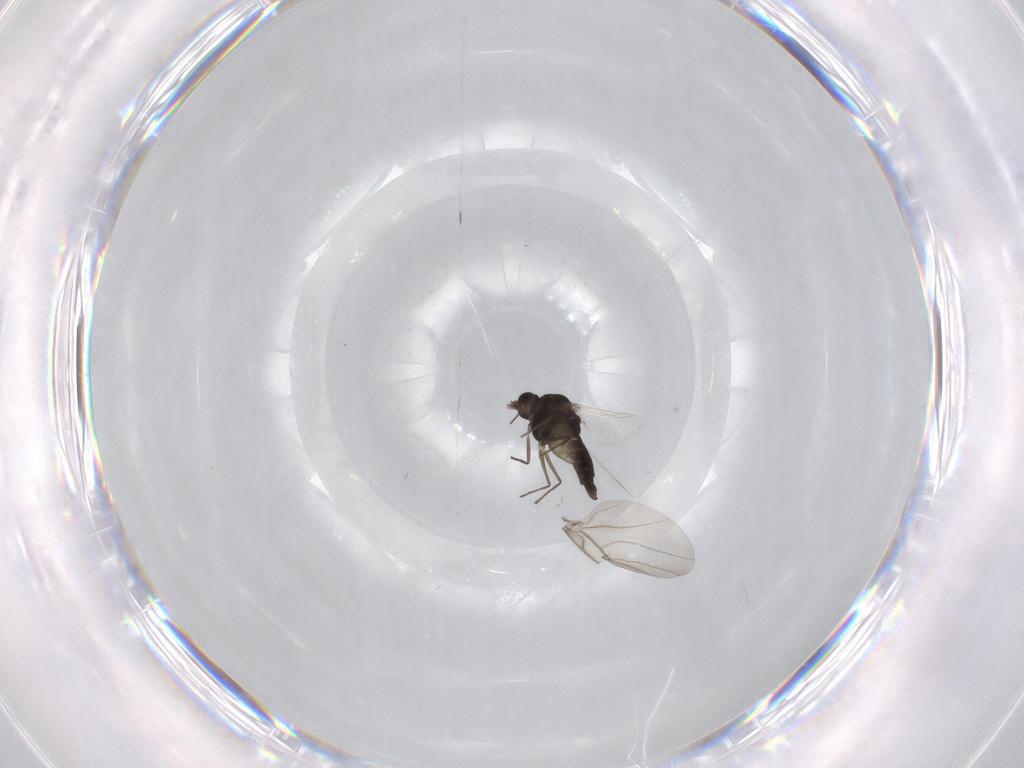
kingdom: Animalia
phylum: Arthropoda
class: Insecta
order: Diptera
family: Chironomidae
